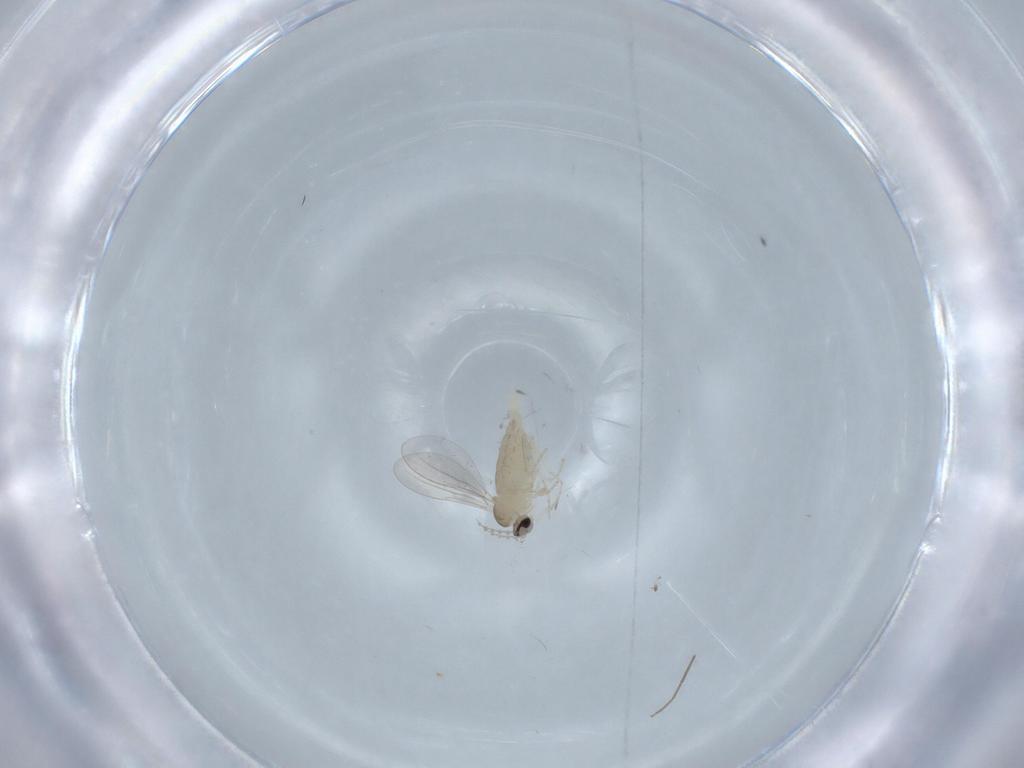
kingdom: Animalia
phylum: Arthropoda
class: Insecta
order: Diptera
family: Cecidomyiidae
